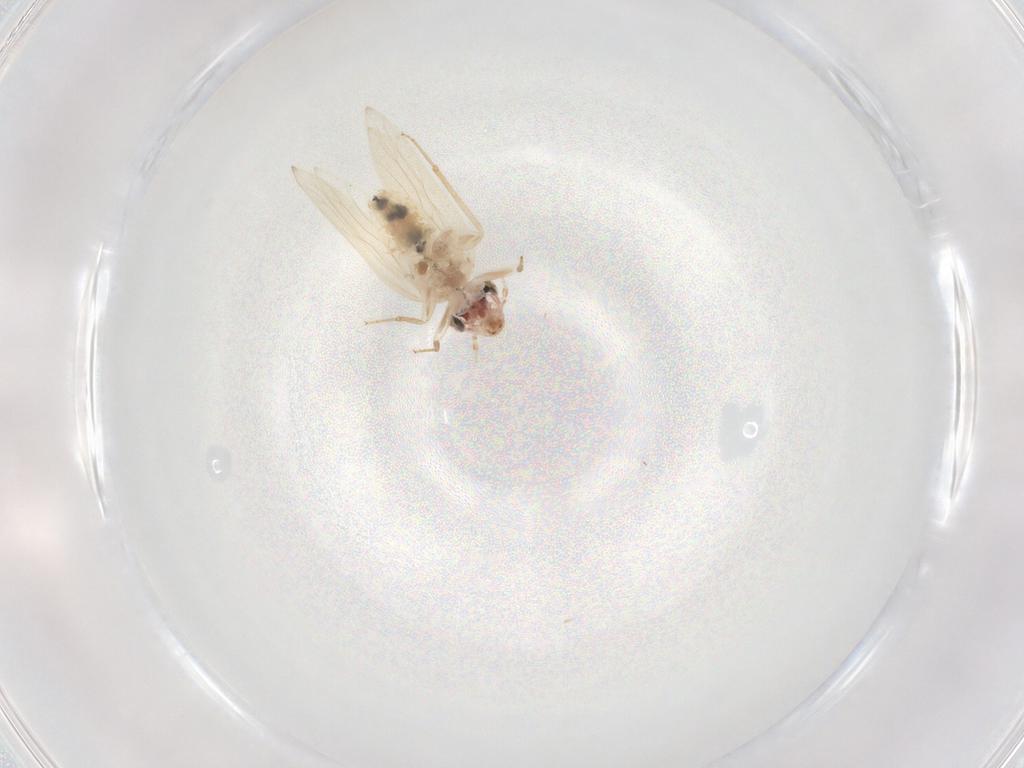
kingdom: Animalia
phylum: Arthropoda
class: Insecta
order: Psocodea
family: Lepidopsocidae
